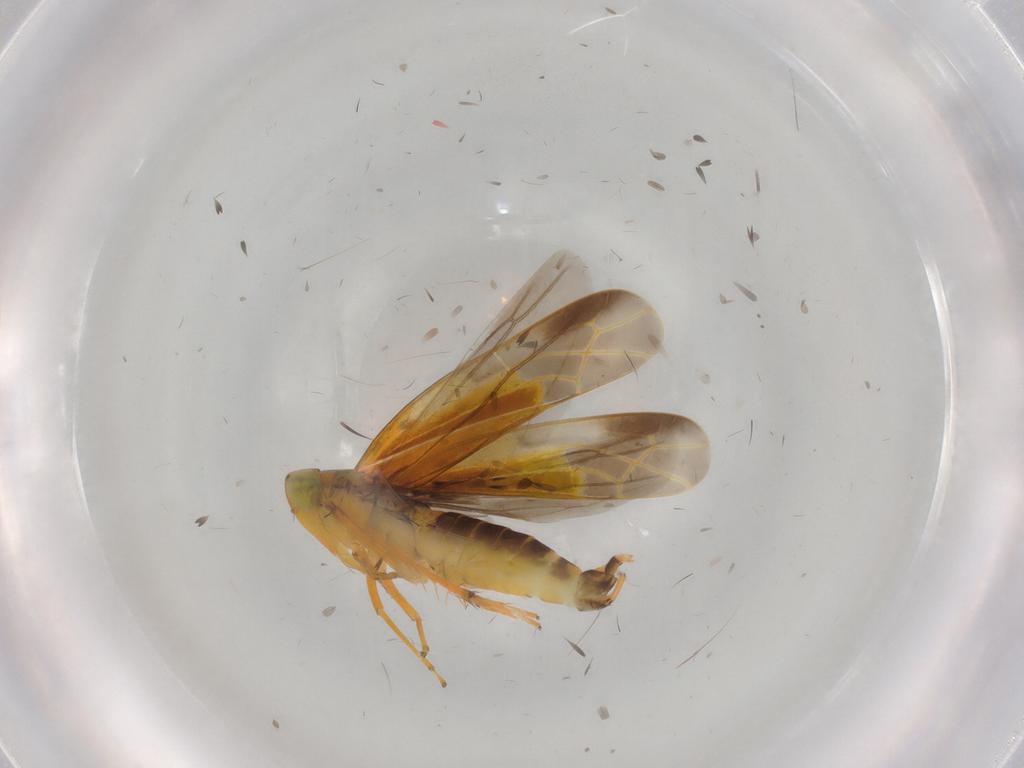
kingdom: Animalia
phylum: Arthropoda
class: Insecta
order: Hemiptera
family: Cicadellidae
